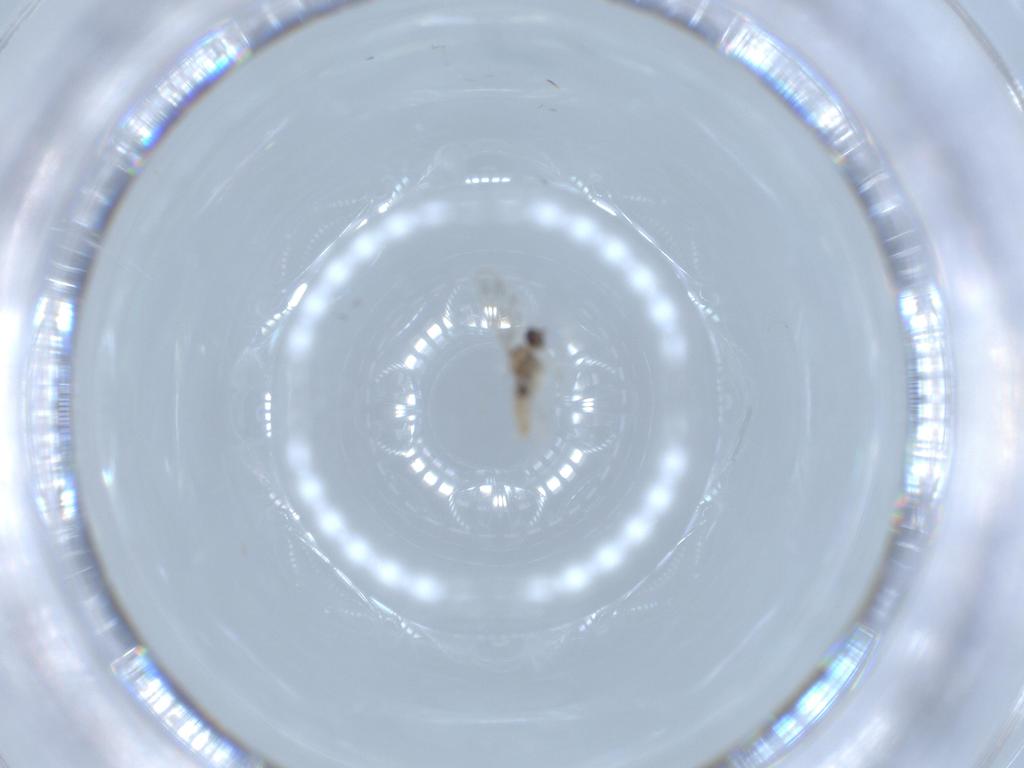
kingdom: Animalia
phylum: Arthropoda
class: Insecta
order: Diptera
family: Cecidomyiidae
